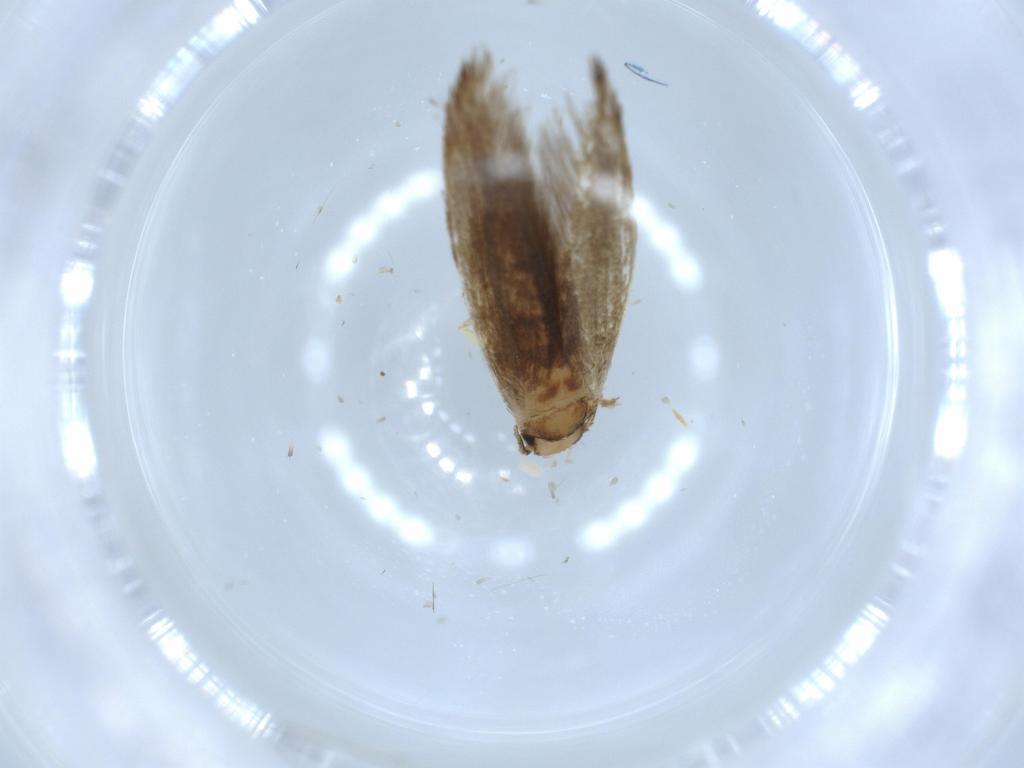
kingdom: Animalia
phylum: Arthropoda
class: Insecta
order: Lepidoptera
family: Tineidae
